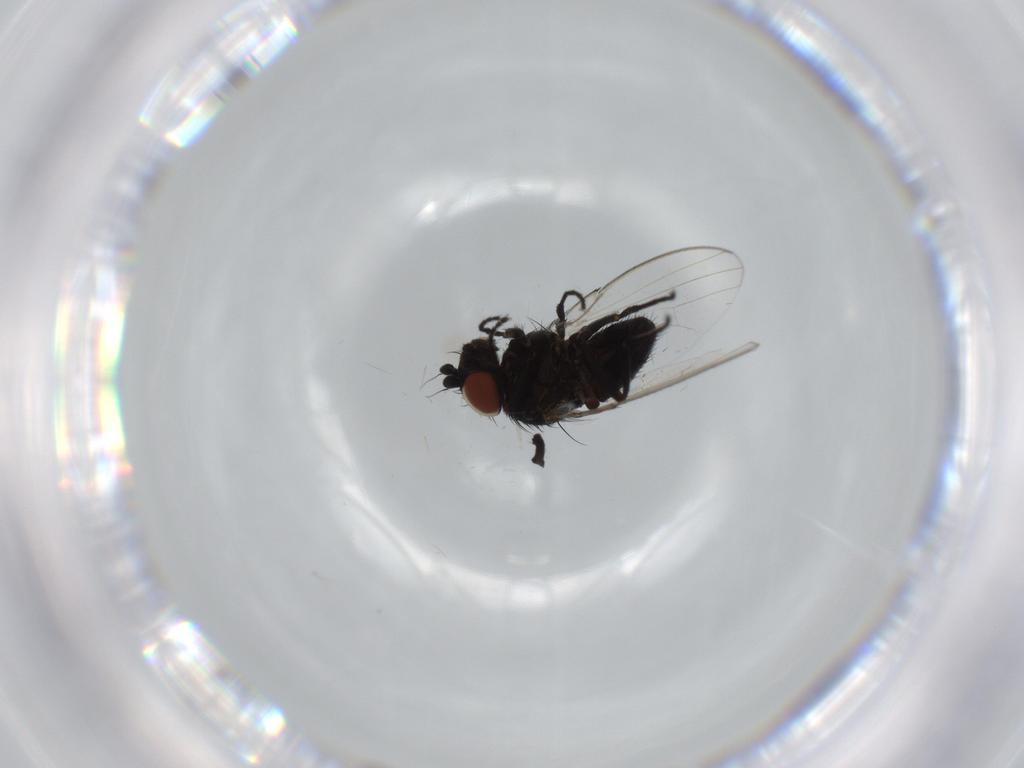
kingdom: Animalia
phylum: Arthropoda
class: Insecta
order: Diptera
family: Milichiidae
